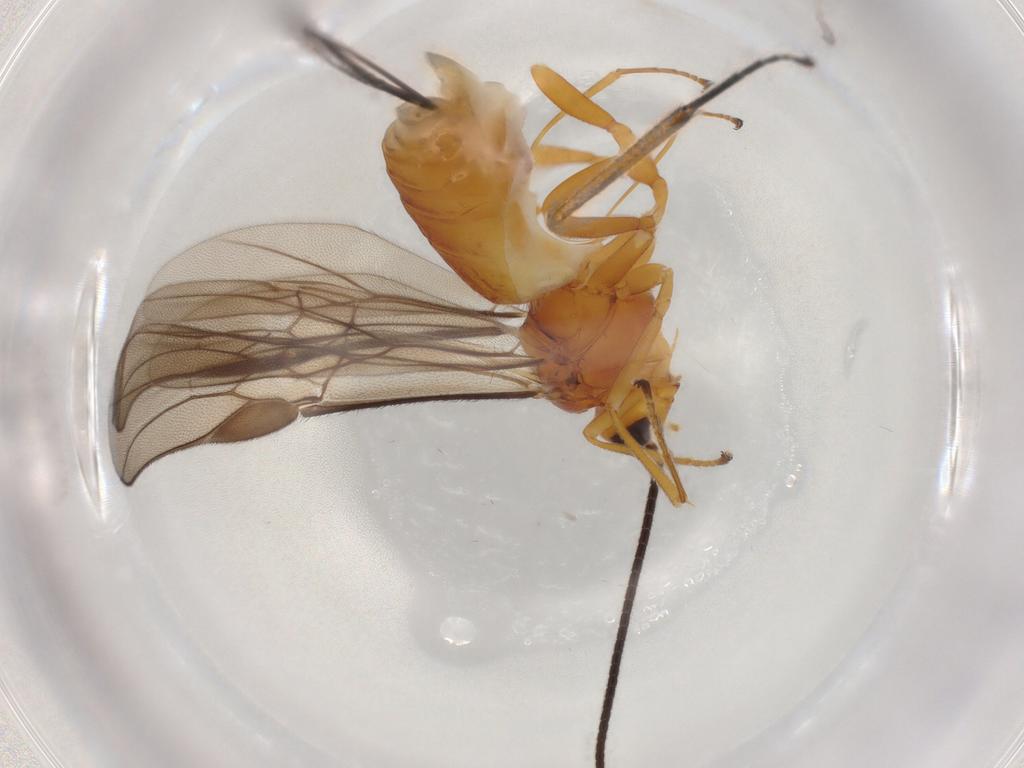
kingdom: Animalia
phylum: Arthropoda
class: Insecta
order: Hymenoptera
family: Braconidae
